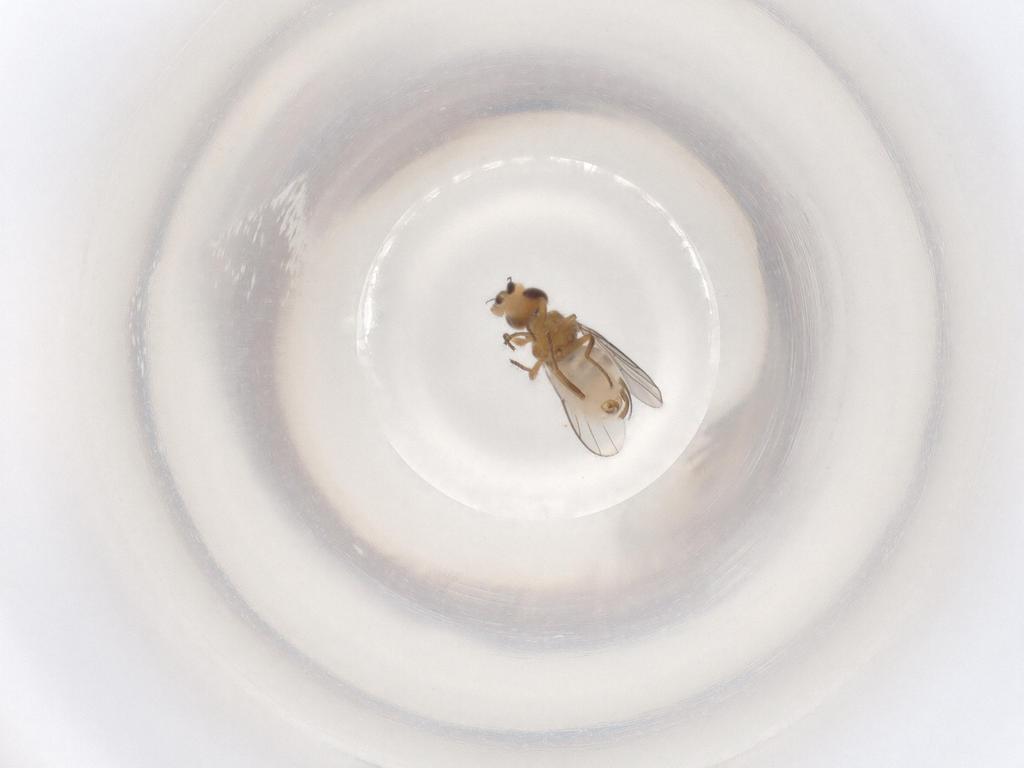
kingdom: Animalia
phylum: Arthropoda
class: Insecta
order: Diptera
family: Chloropidae
